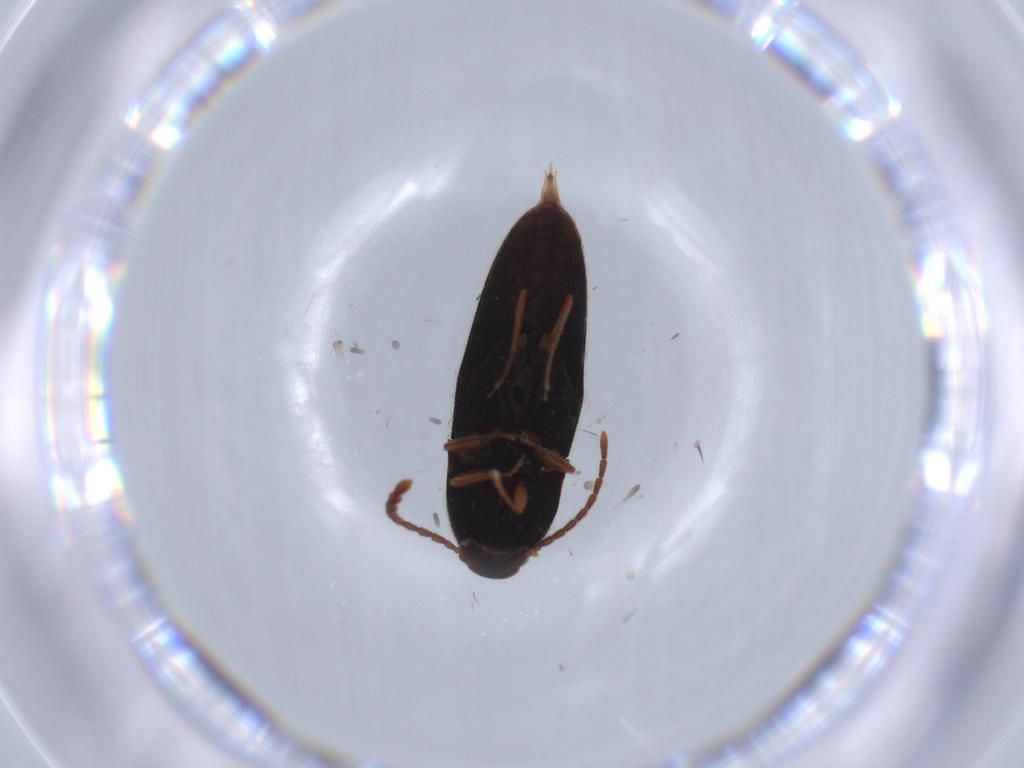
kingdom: Animalia
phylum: Arthropoda
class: Insecta
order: Coleoptera
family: Elateridae
